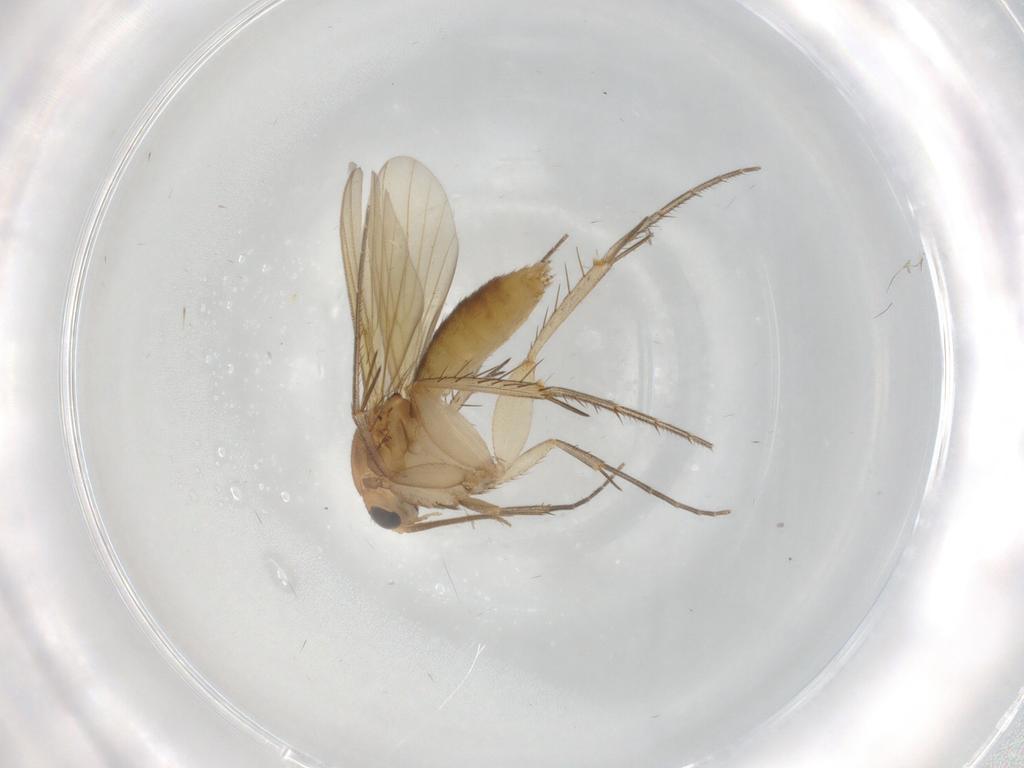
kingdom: Animalia
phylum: Arthropoda
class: Insecta
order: Diptera
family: Mycetophilidae
